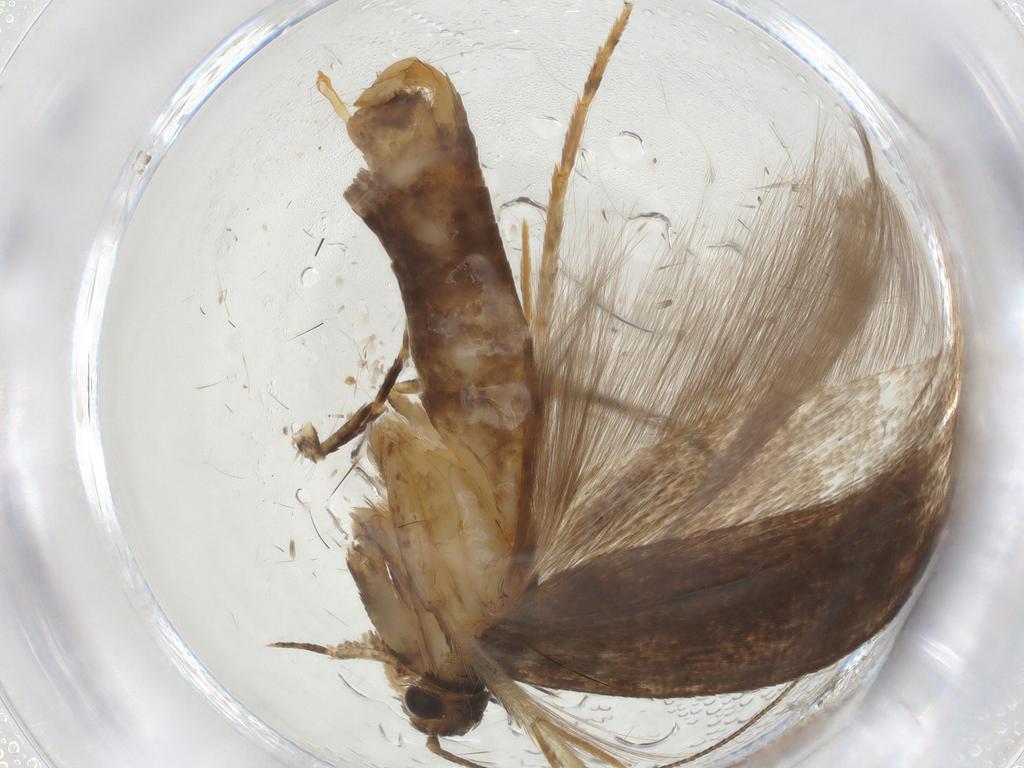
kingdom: Animalia
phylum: Arthropoda
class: Insecta
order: Lepidoptera
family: Gelechiidae
